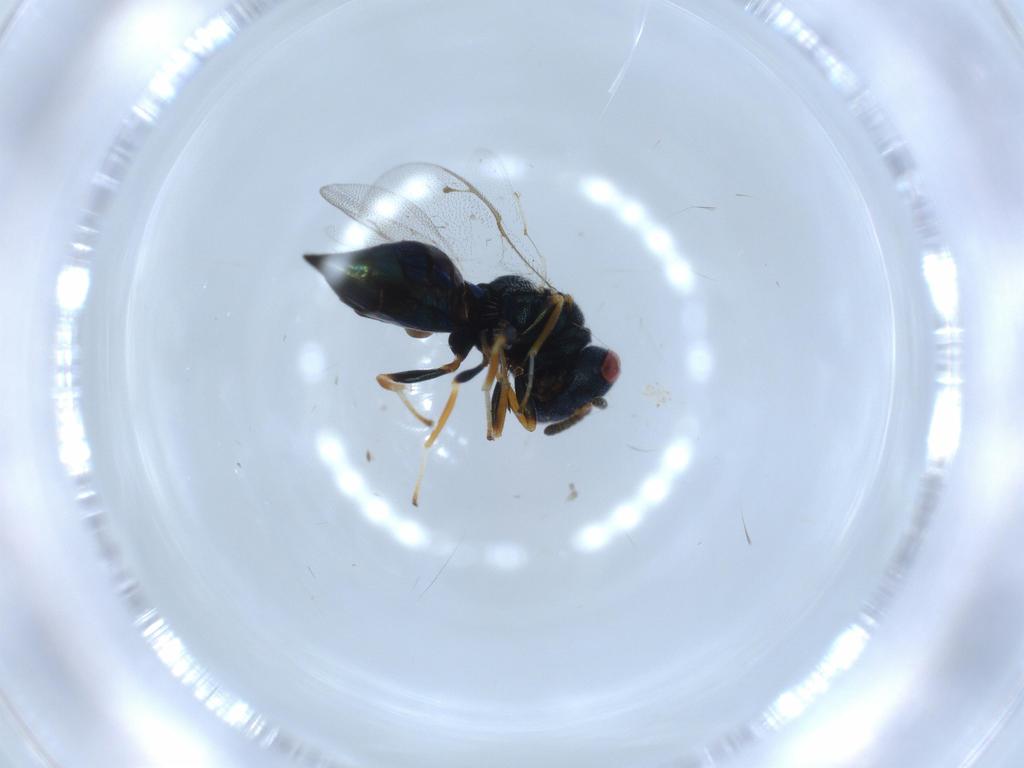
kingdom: Animalia
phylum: Arthropoda
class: Insecta
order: Hymenoptera
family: Pteromalidae
